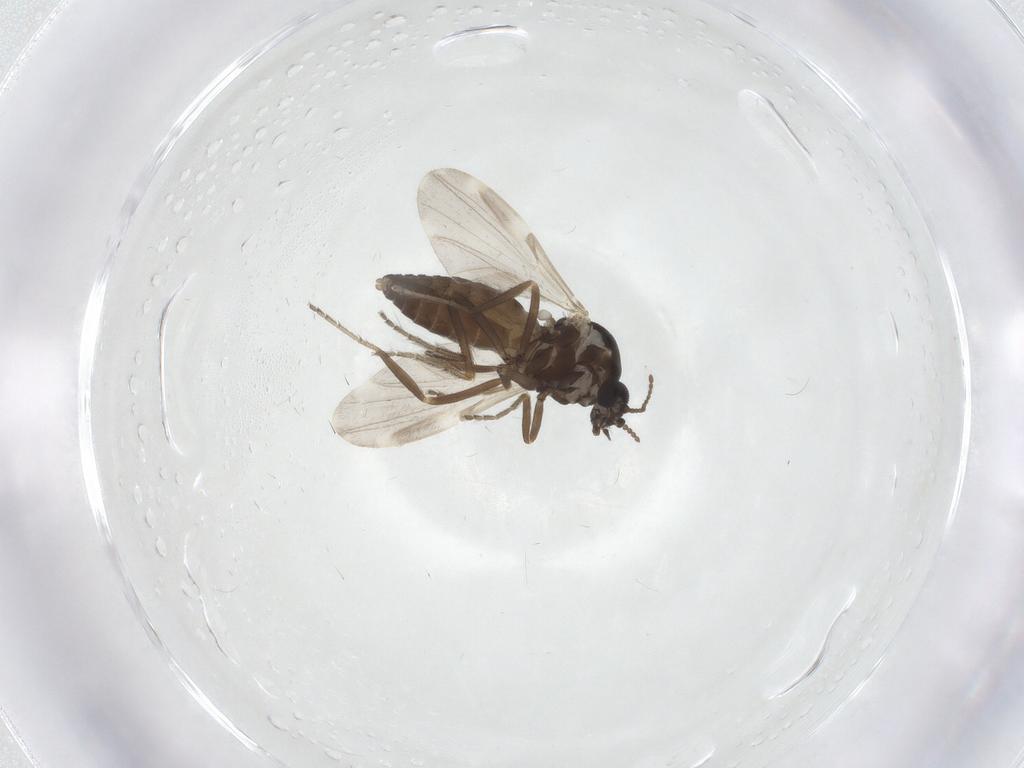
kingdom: Animalia
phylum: Arthropoda
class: Insecta
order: Diptera
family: Ceratopogonidae
